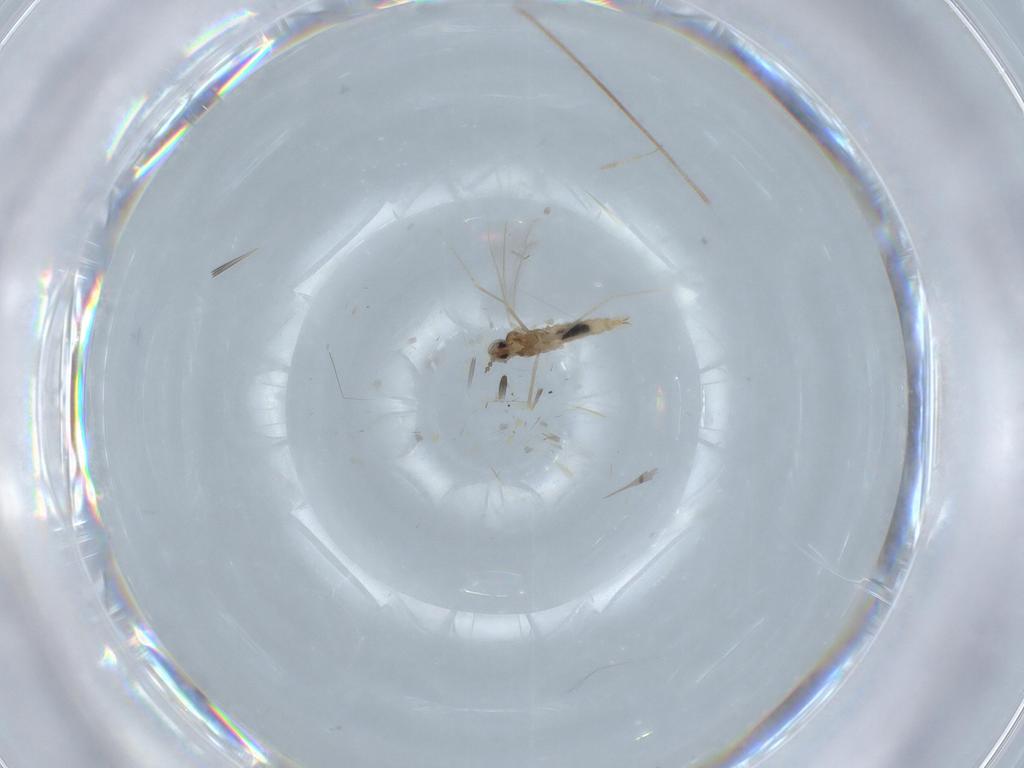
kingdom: Animalia
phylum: Arthropoda
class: Insecta
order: Diptera
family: Cecidomyiidae
